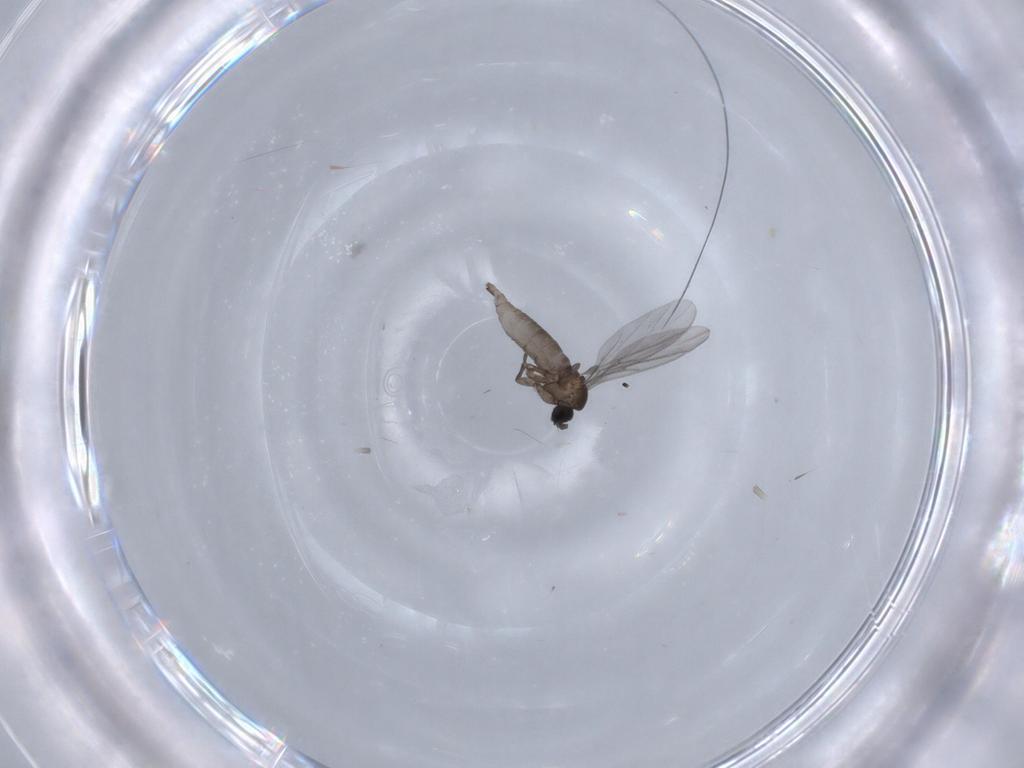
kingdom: Animalia
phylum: Arthropoda
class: Insecta
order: Diptera
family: Sciaridae
